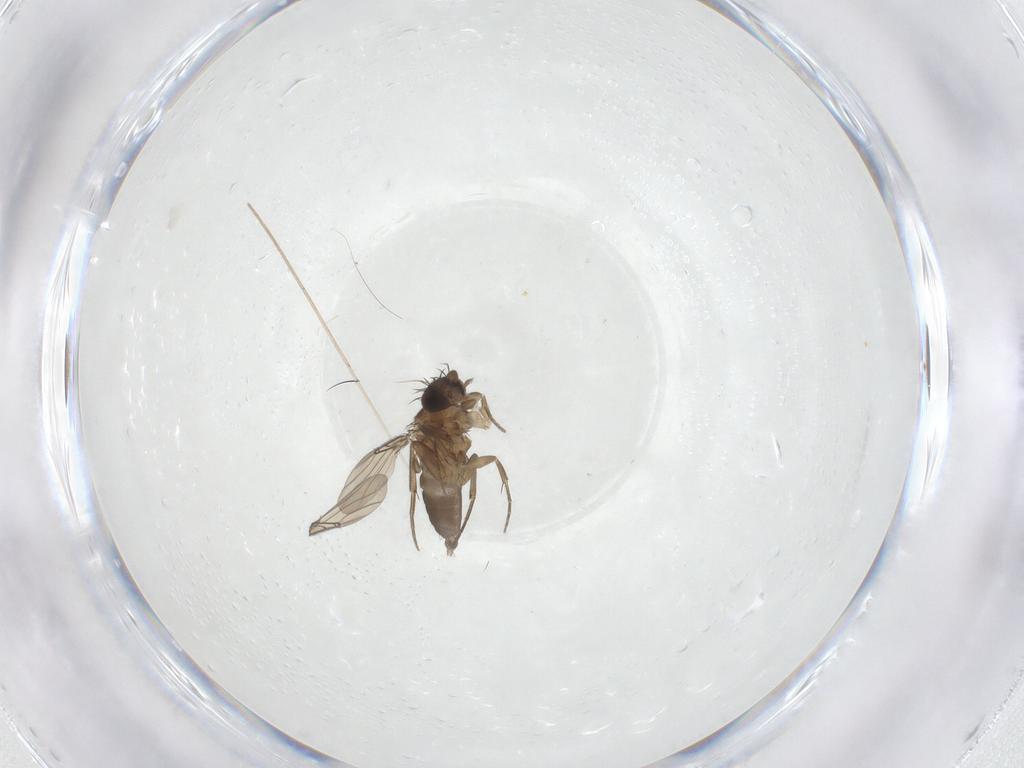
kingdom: Animalia
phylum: Arthropoda
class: Insecta
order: Diptera
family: Phoridae
